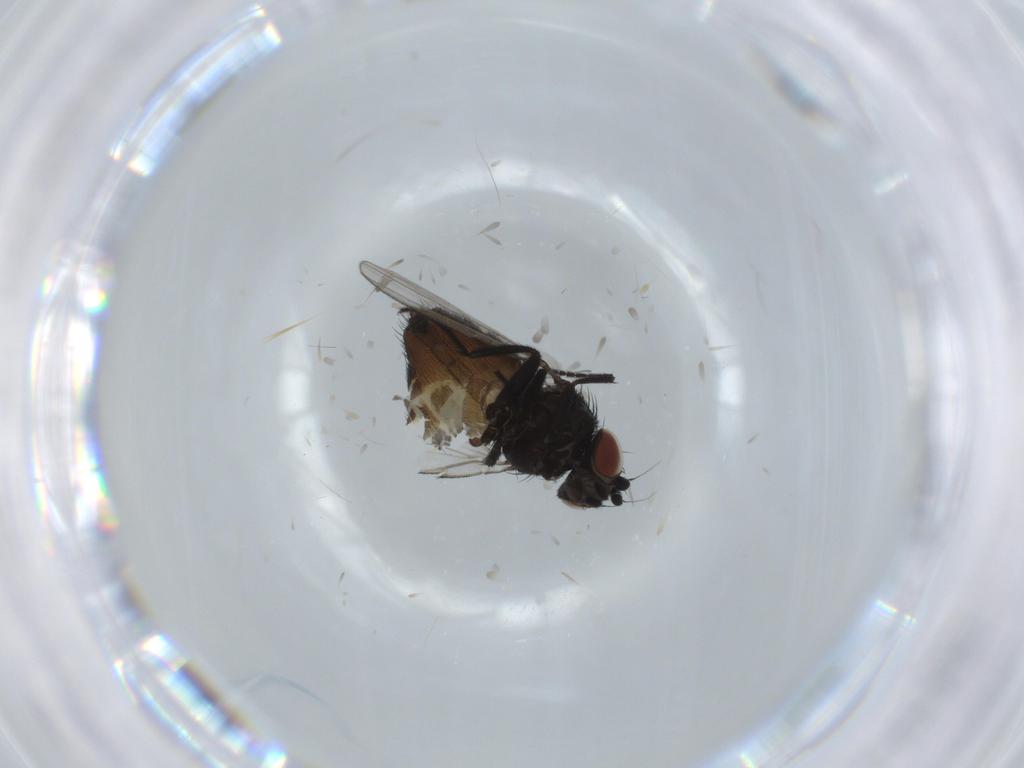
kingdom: Animalia
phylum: Arthropoda
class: Insecta
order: Diptera
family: Milichiidae
